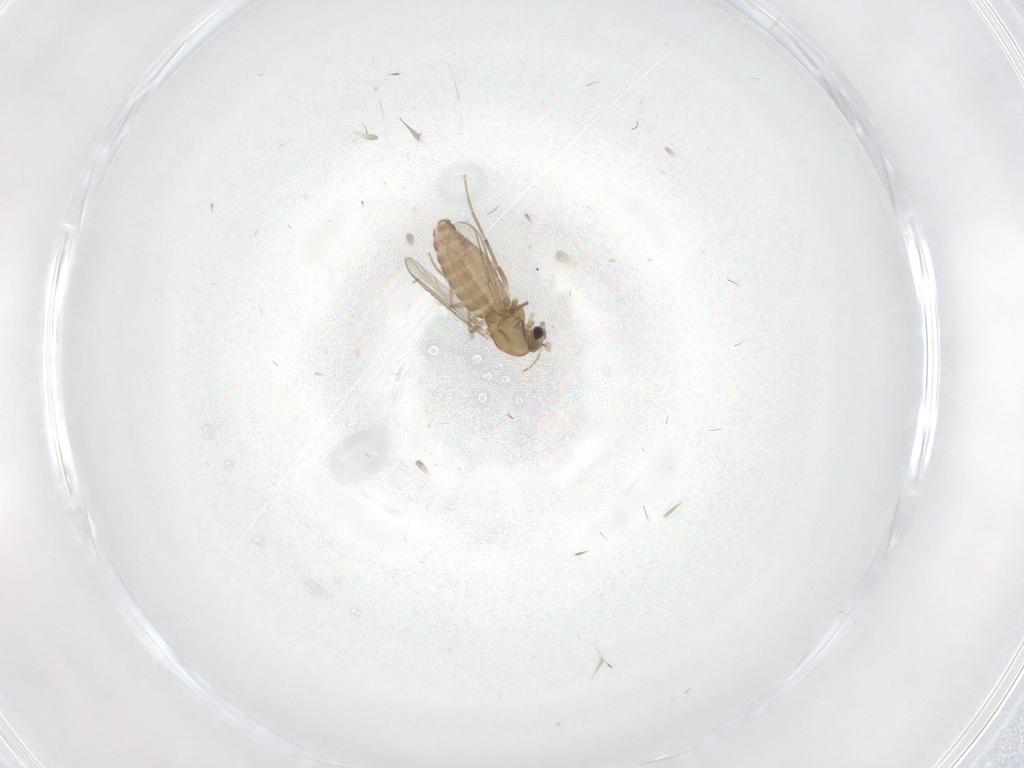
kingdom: Animalia
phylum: Arthropoda
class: Insecta
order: Diptera
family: Chironomidae
